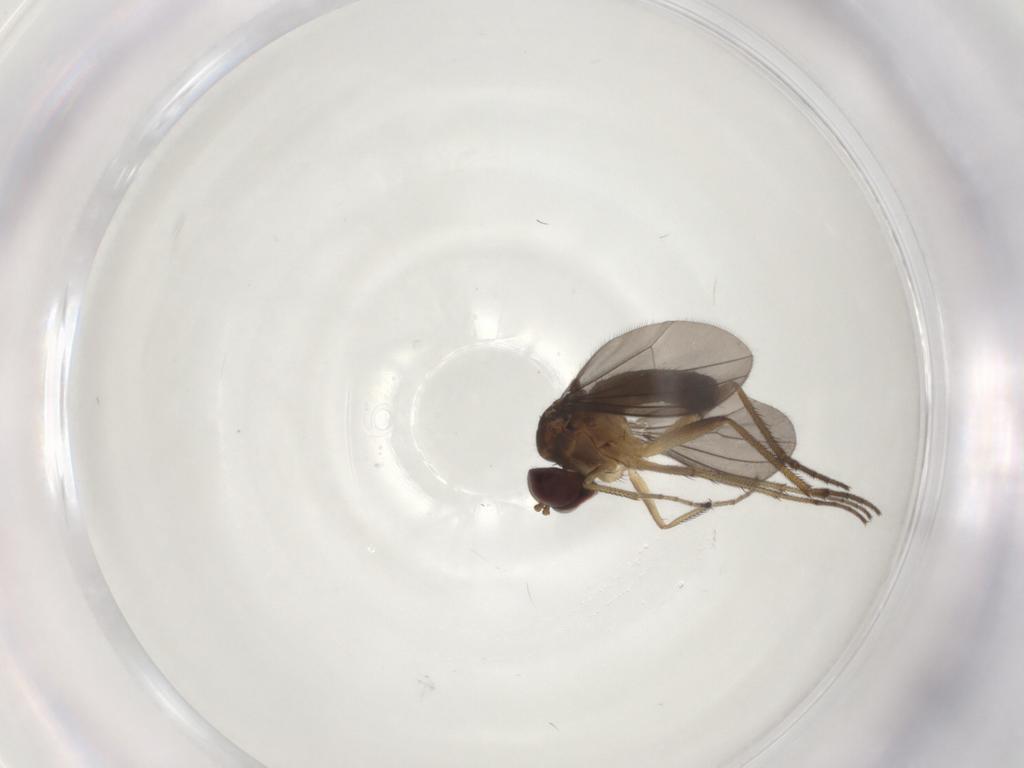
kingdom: Animalia
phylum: Arthropoda
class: Insecta
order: Diptera
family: Dolichopodidae
